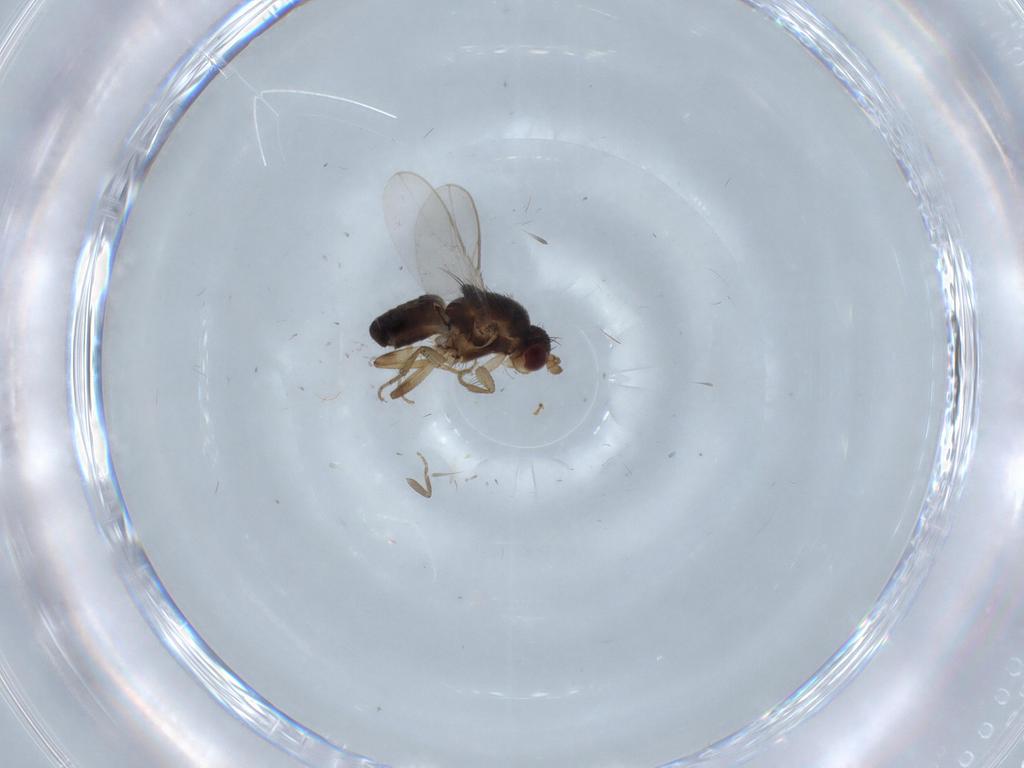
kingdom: Animalia
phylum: Arthropoda
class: Insecta
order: Diptera
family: Sphaeroceridae
